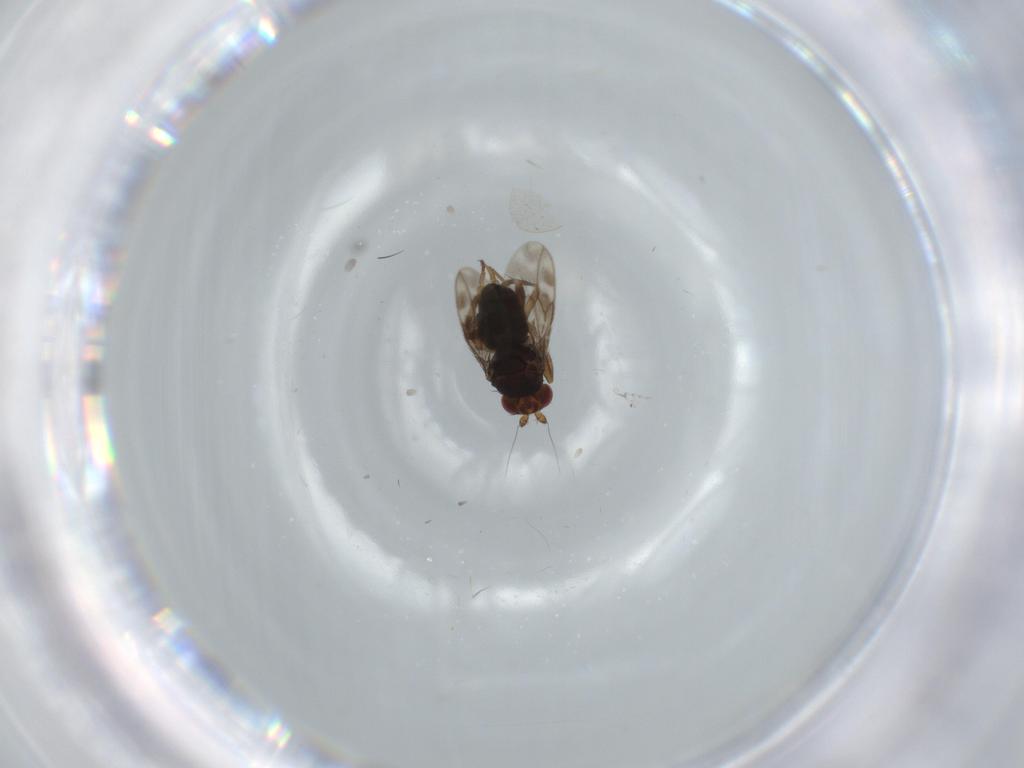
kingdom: Animalia
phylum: Arthropoda
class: Insecta
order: Diptera
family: Sphaeroceridae
